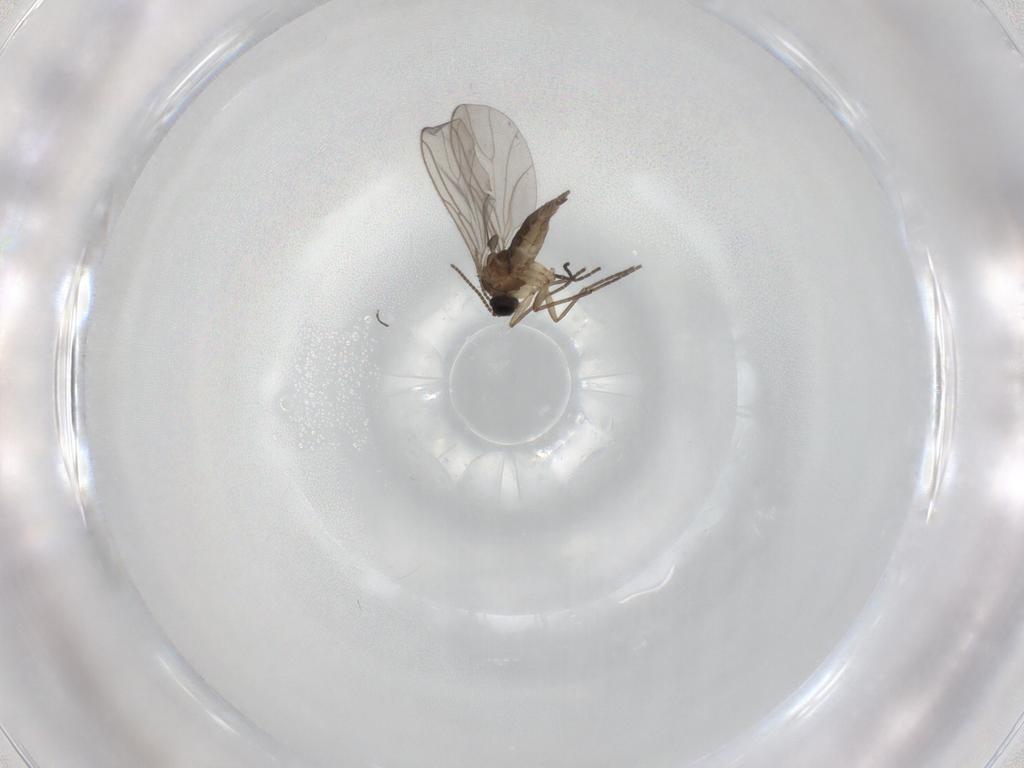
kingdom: Animalia
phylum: Arthropoda
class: Insecta
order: Diptera
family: Sciaridae
